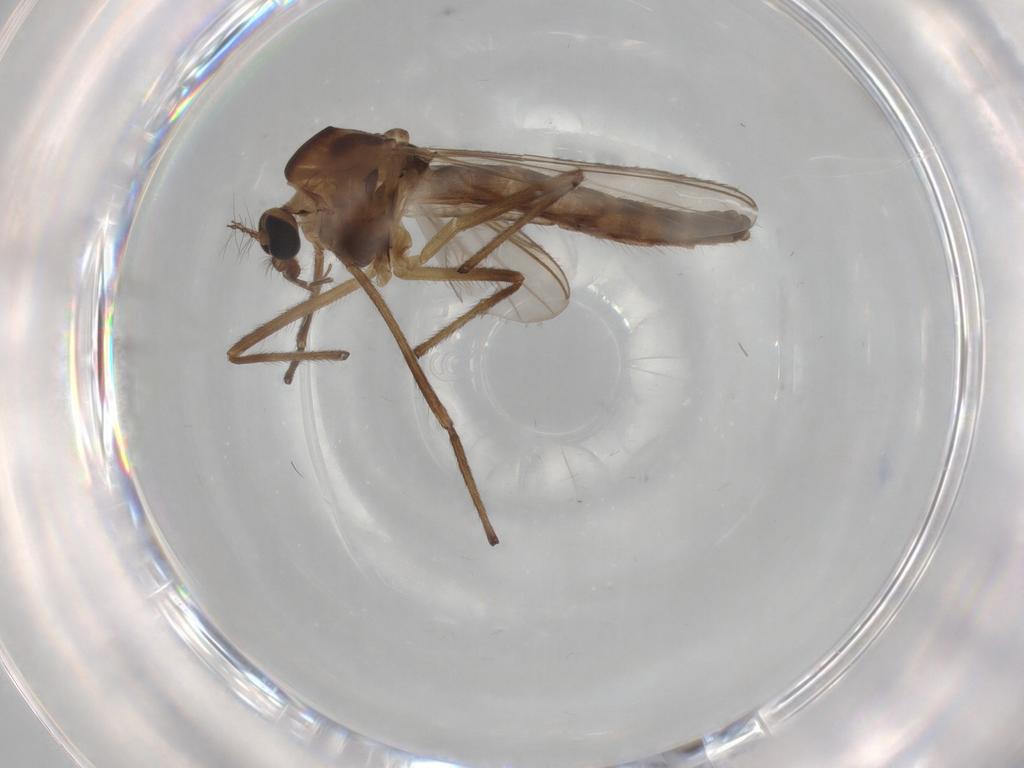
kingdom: Animalia
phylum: Arthropoda
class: Insecta
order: Diptera
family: Chironomidae
